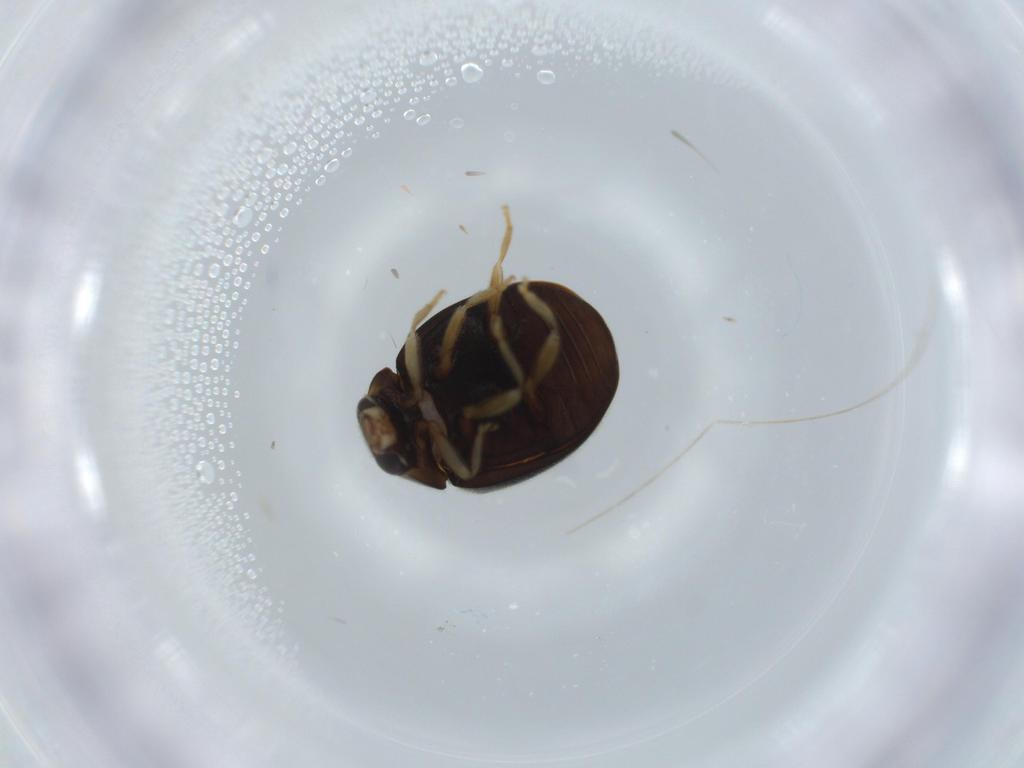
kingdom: Animalia
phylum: Arthropoda
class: Insecta
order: Coleoptera
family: Coccinellidae
